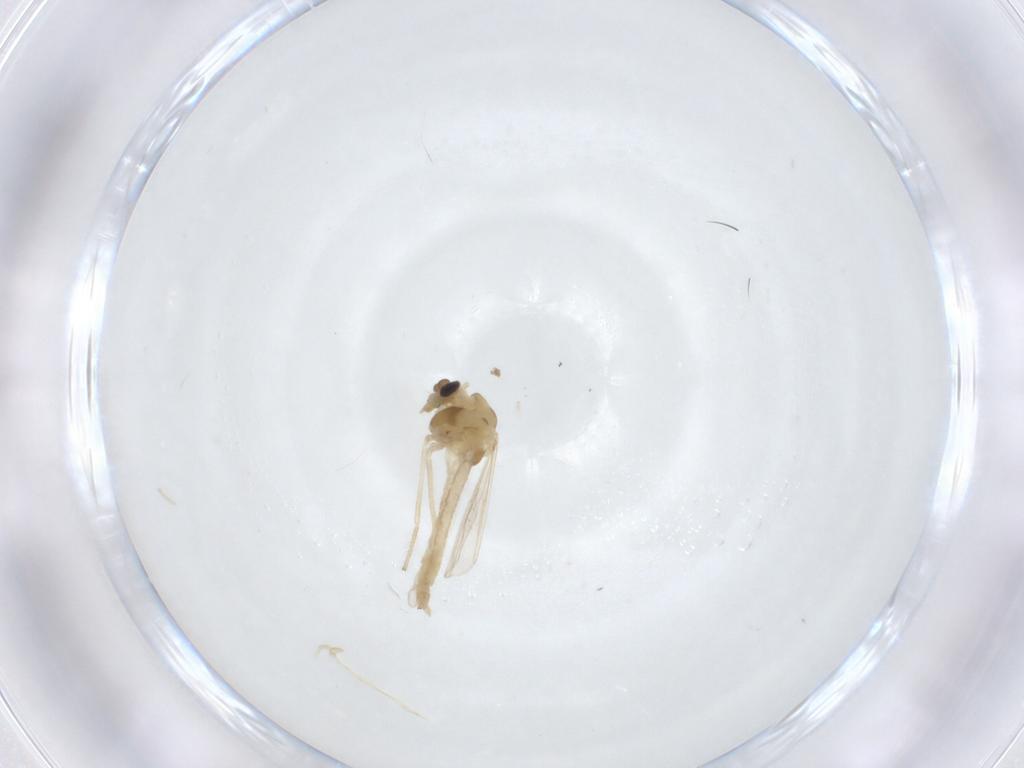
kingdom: Animalia
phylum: Arthropoda
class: Insecta
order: Diptera
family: Chironomidae
